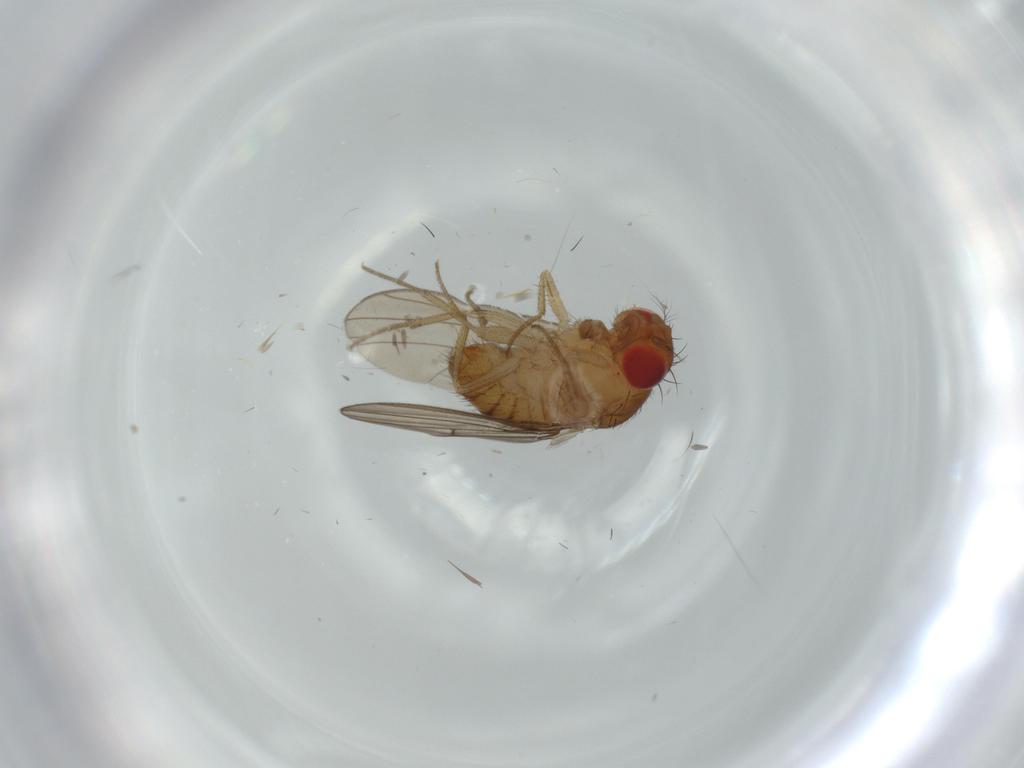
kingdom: Animalia
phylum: Arthropoda
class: Insecta
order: Diptera
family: Drosophilidae
